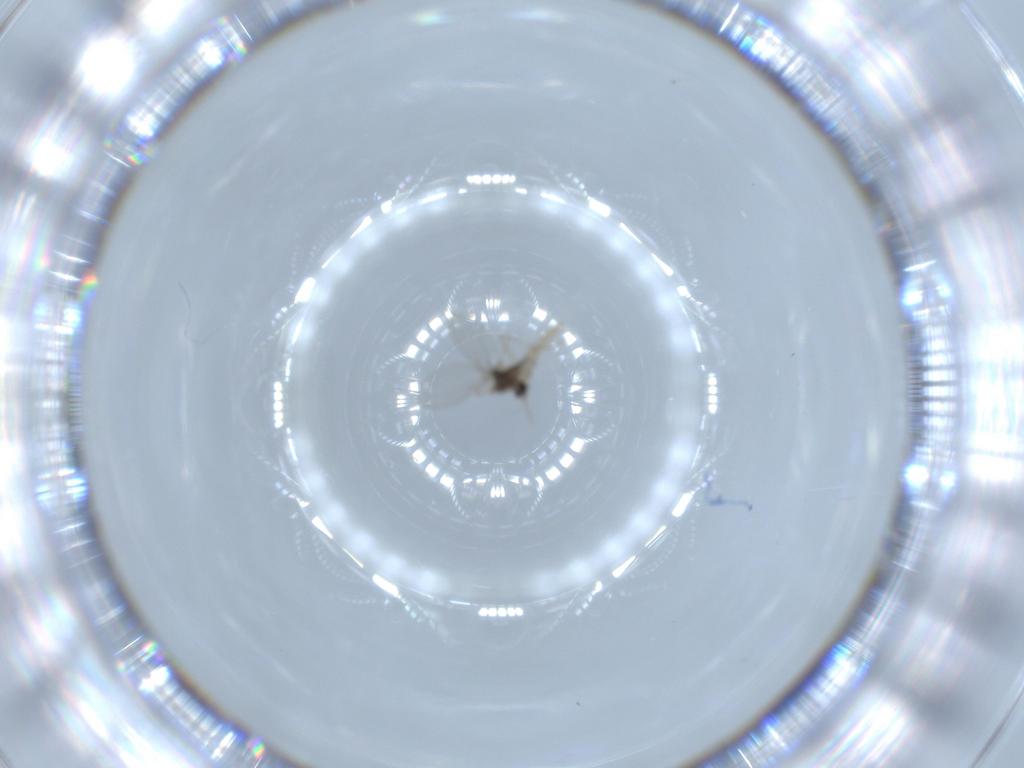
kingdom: Animalia
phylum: Arthropoda
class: Insecta
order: Diptera
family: Cecidomyiidae
